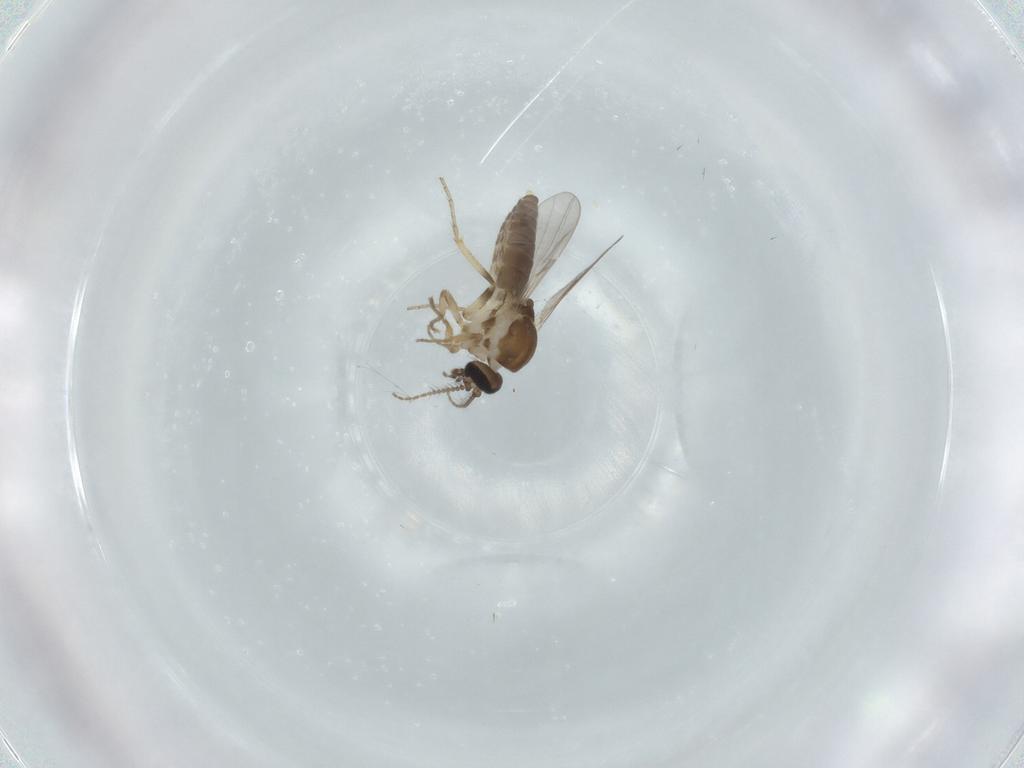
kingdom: Animalia
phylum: Arthropoda
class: Insecta
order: Diptera
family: Ceratopogonidae
